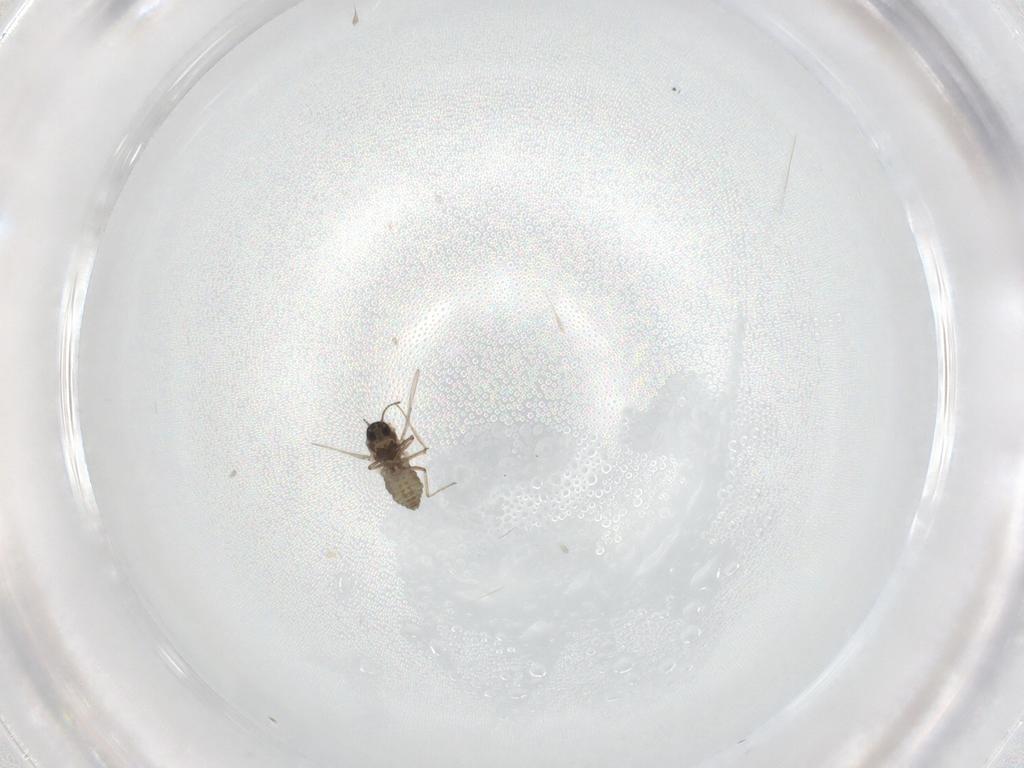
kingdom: Animalia
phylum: Arthropoda
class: Insecta
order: Diptera
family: Ceratopogonidae
